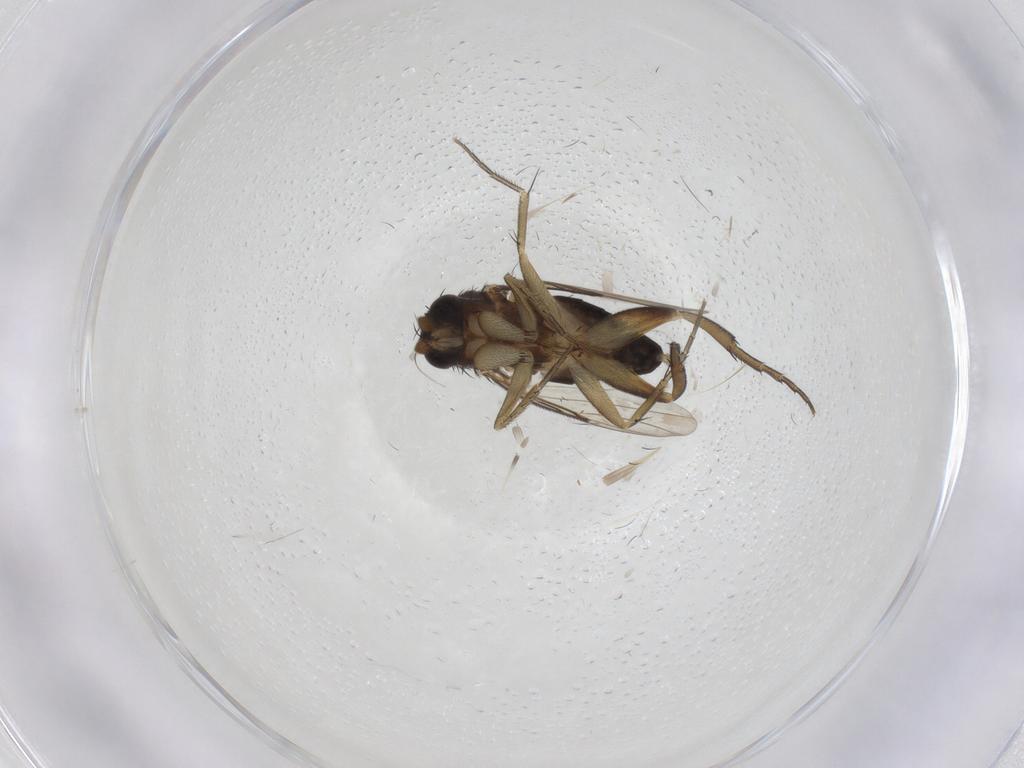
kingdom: Animalia
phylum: Arthropoda
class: Insecta
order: Diptera
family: Phoridae
